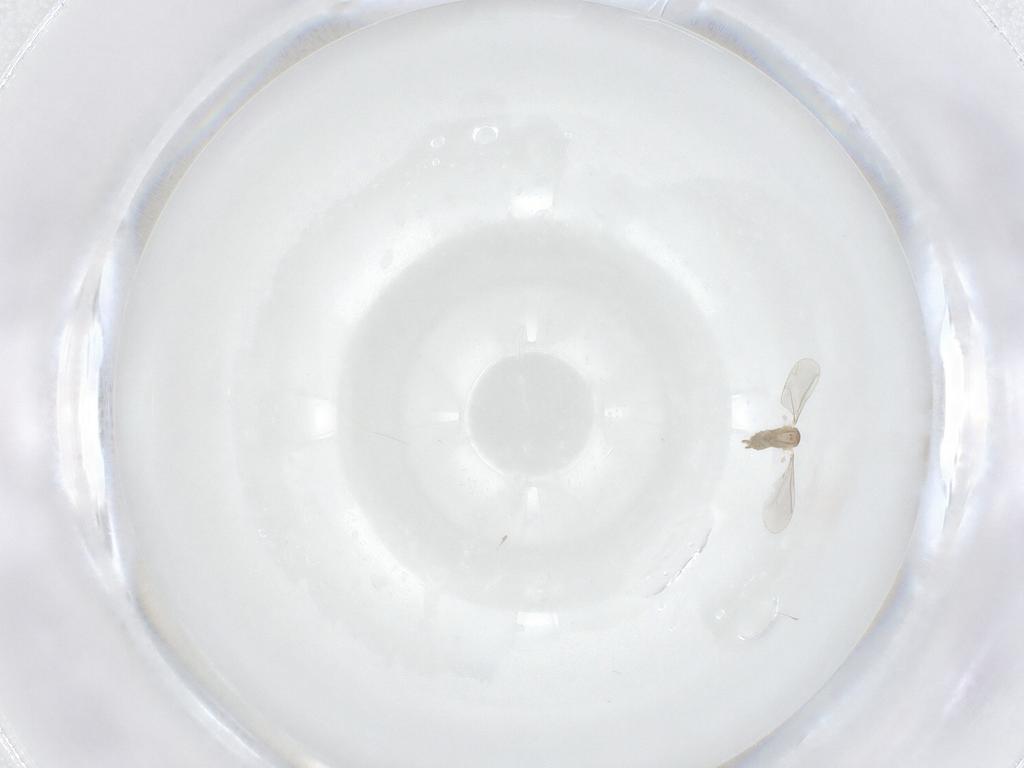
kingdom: Animalia
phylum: Arthropoda
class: Insecta
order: Diptera
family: Cecidomyiidae
